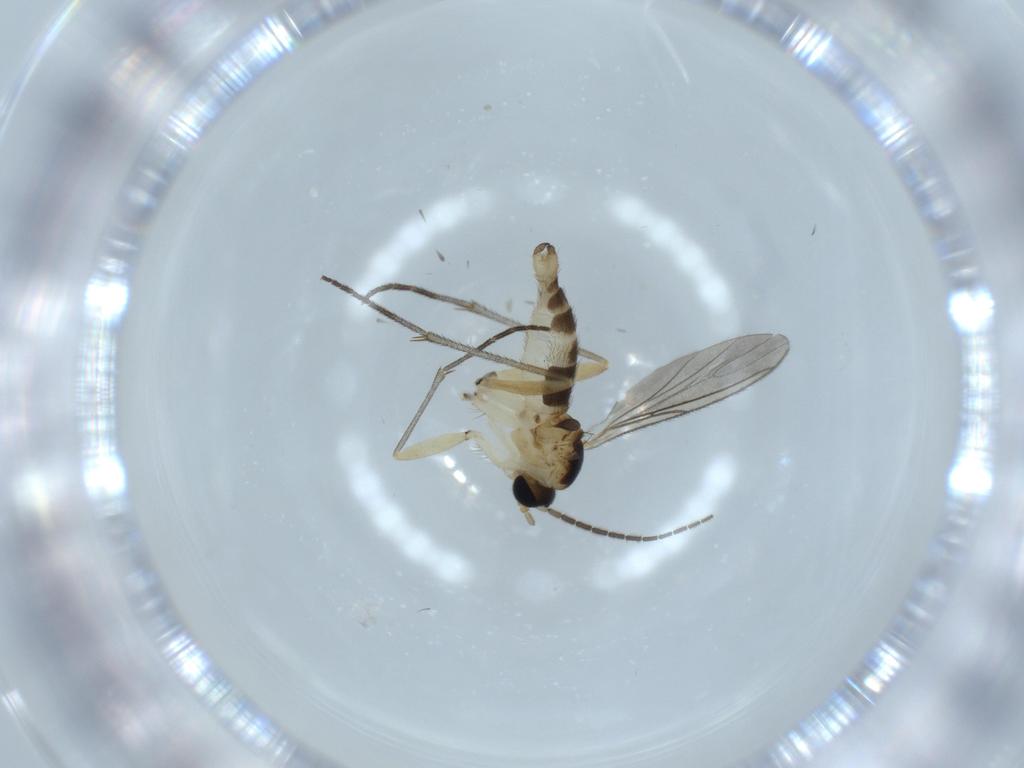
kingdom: Animalia
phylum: Arthropoda
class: Insecta
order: Diptera
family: Sciaridae
